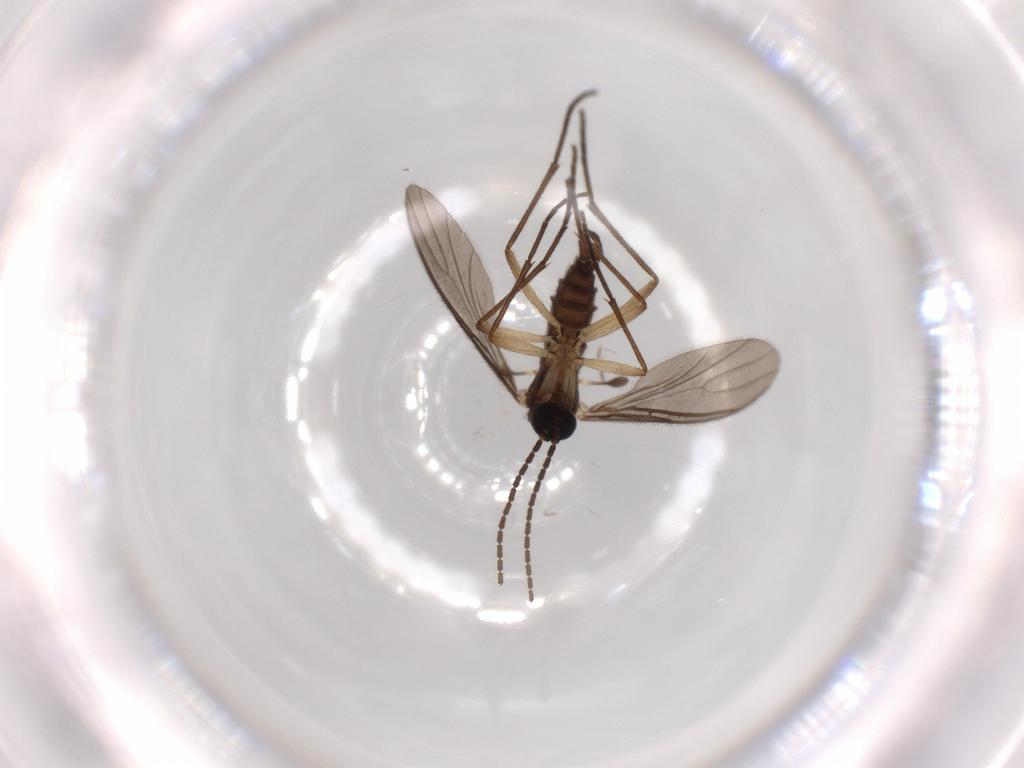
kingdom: Animalia
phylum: Arthropoda
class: Insecta
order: Diptera
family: Sciaridae
